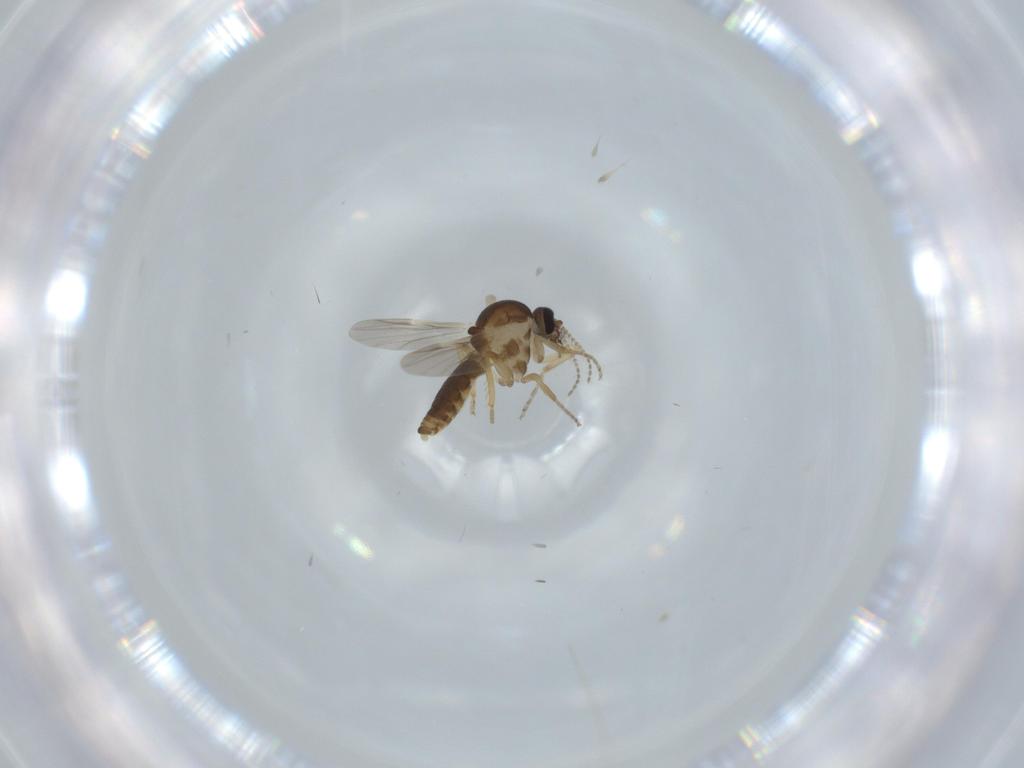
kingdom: Animalia
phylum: Arthropoda
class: Insecta
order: Diptera
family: Ceratopogonidae
